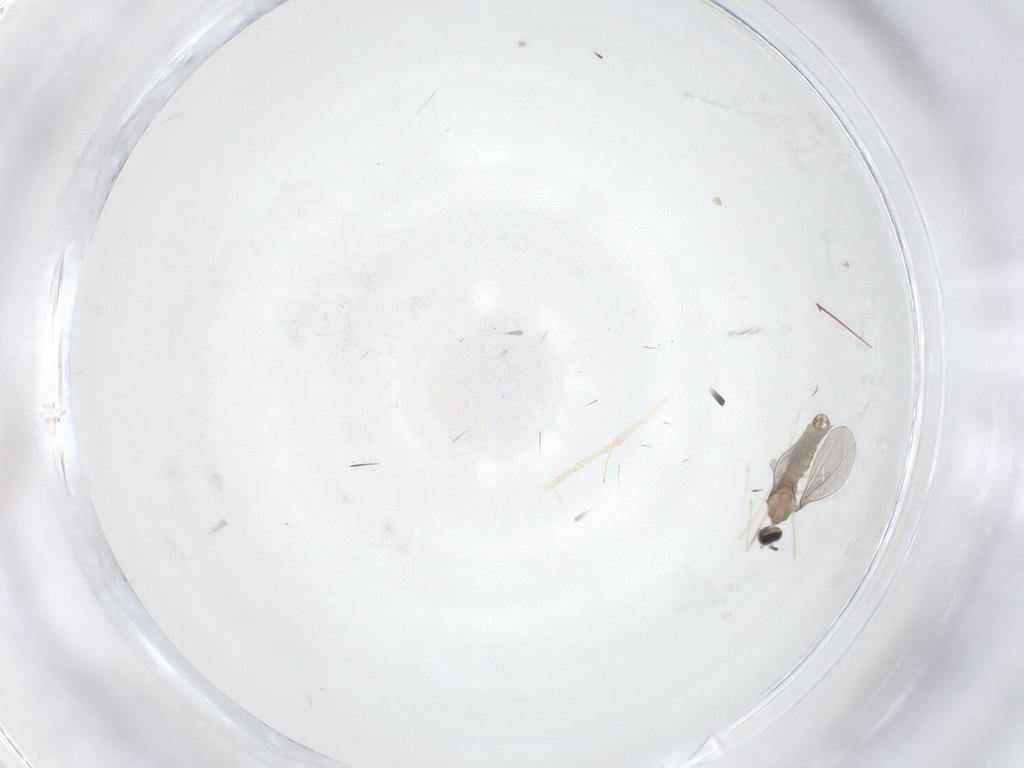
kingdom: Animalia
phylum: Arthropoda
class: Insecta
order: Diptera
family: Cecidomyiidae
